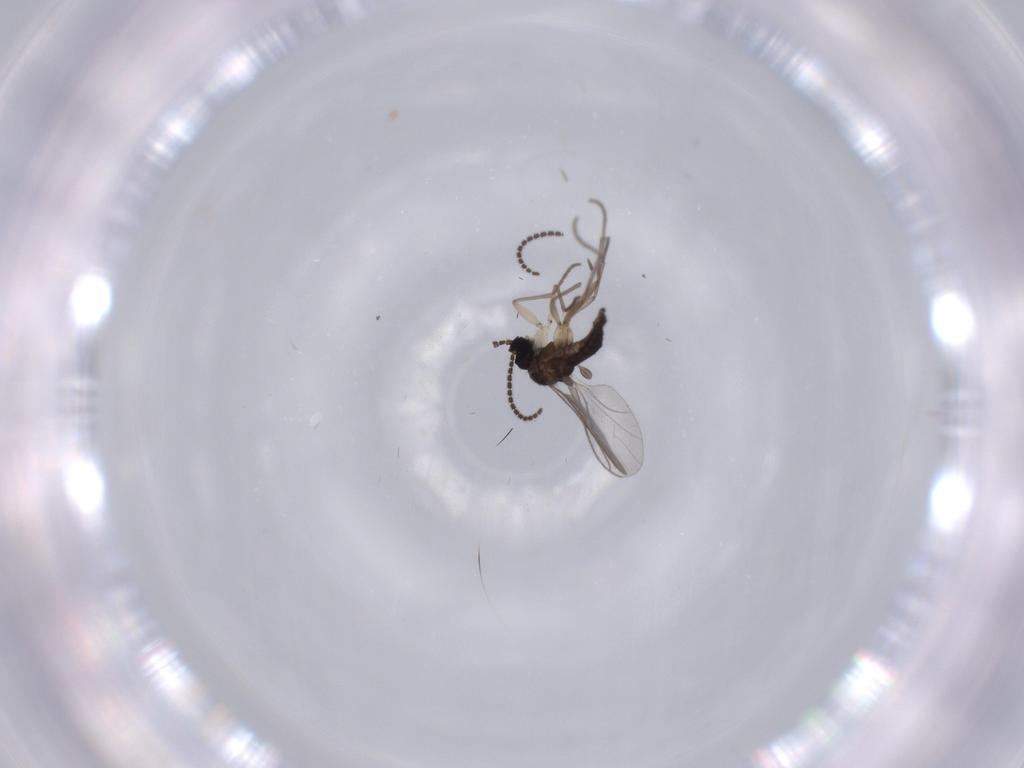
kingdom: Animalia
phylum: Arthropoda
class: Insecta
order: Diptera
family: Sciaridae
